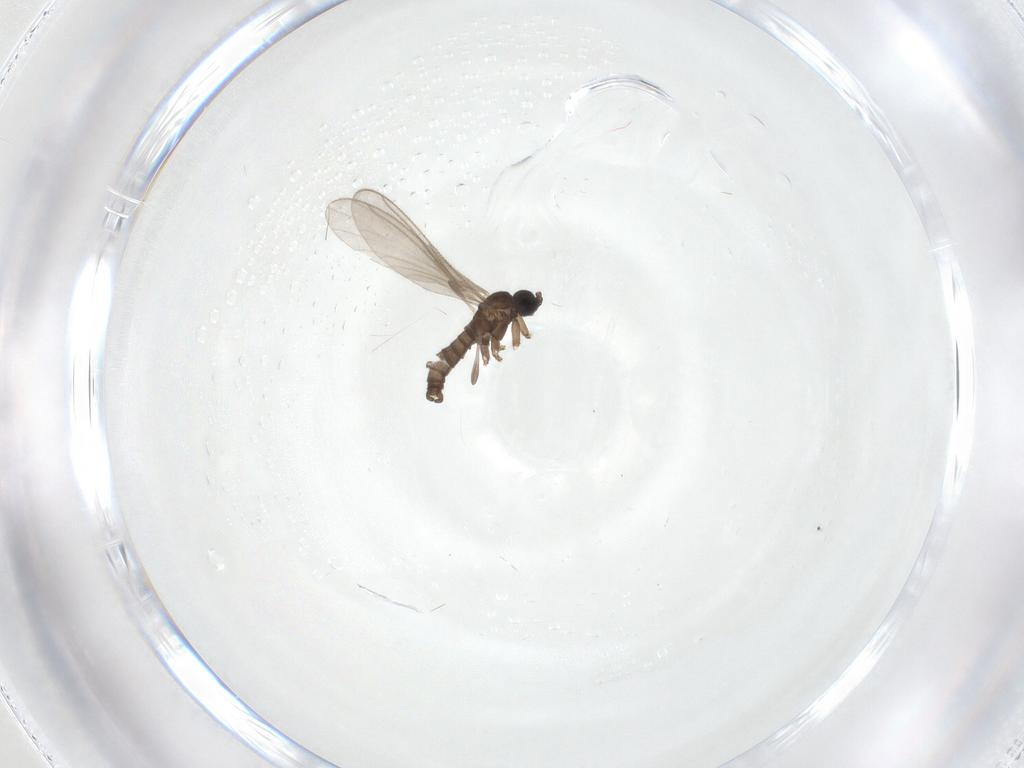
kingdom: Animalia
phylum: Arthropoda
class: Insecta
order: Diptera
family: Sciaridae
